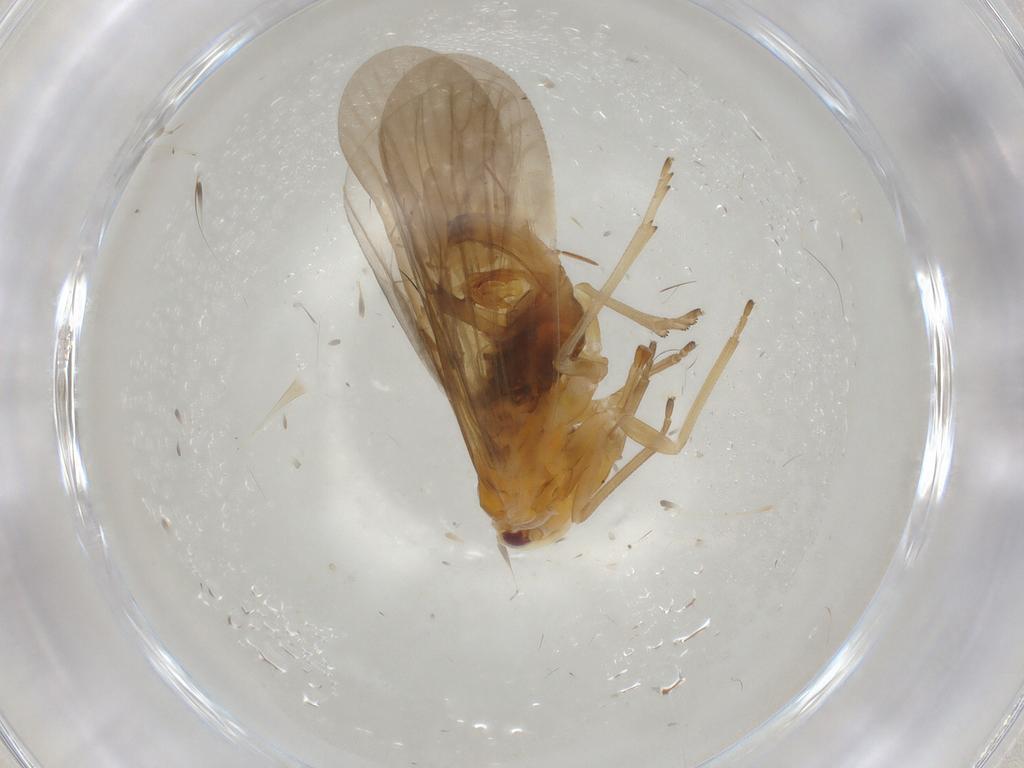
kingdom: Animalia
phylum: Arthropoda
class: Insecta
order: Hemiptera
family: Derbidae
